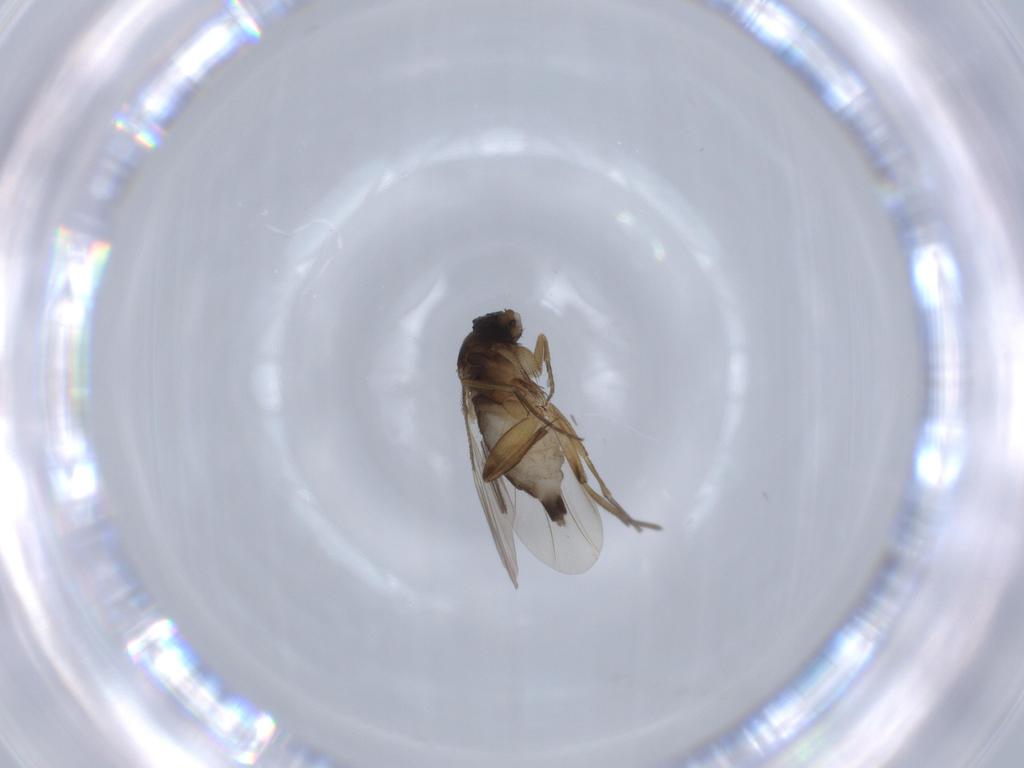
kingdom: Animalia
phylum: Arthropoda
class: Insecta
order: Diptera
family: Phoridae
